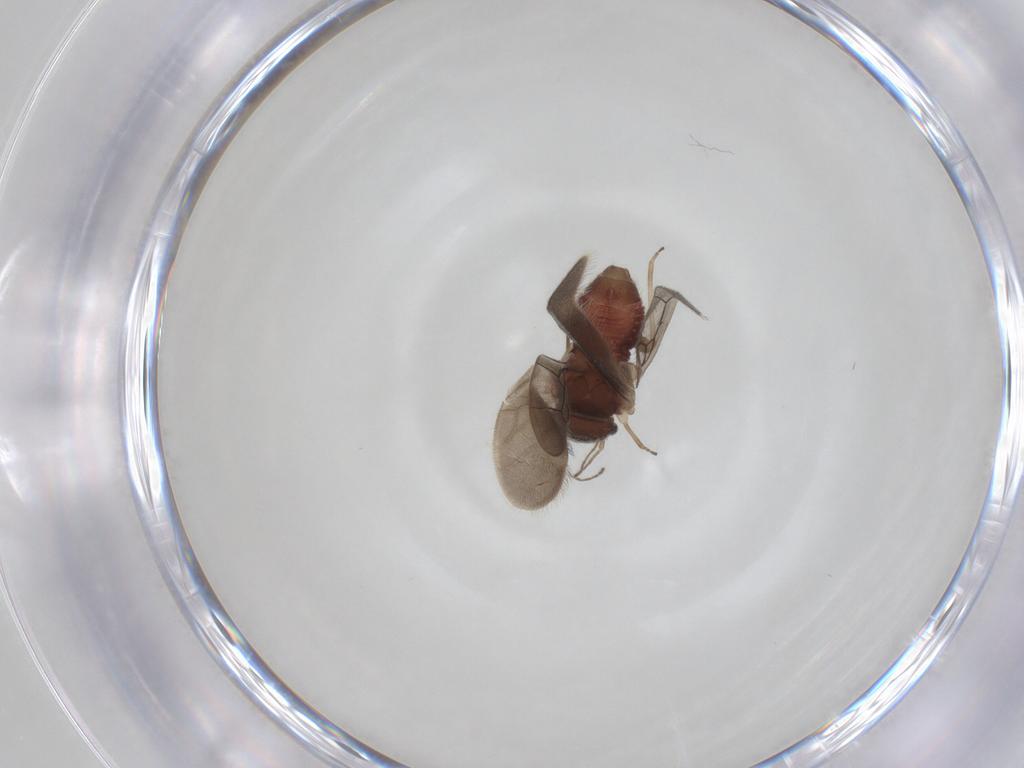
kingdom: Animalia
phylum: Arthropoda
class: Insecta
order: Psocodea
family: Archipsocidae
